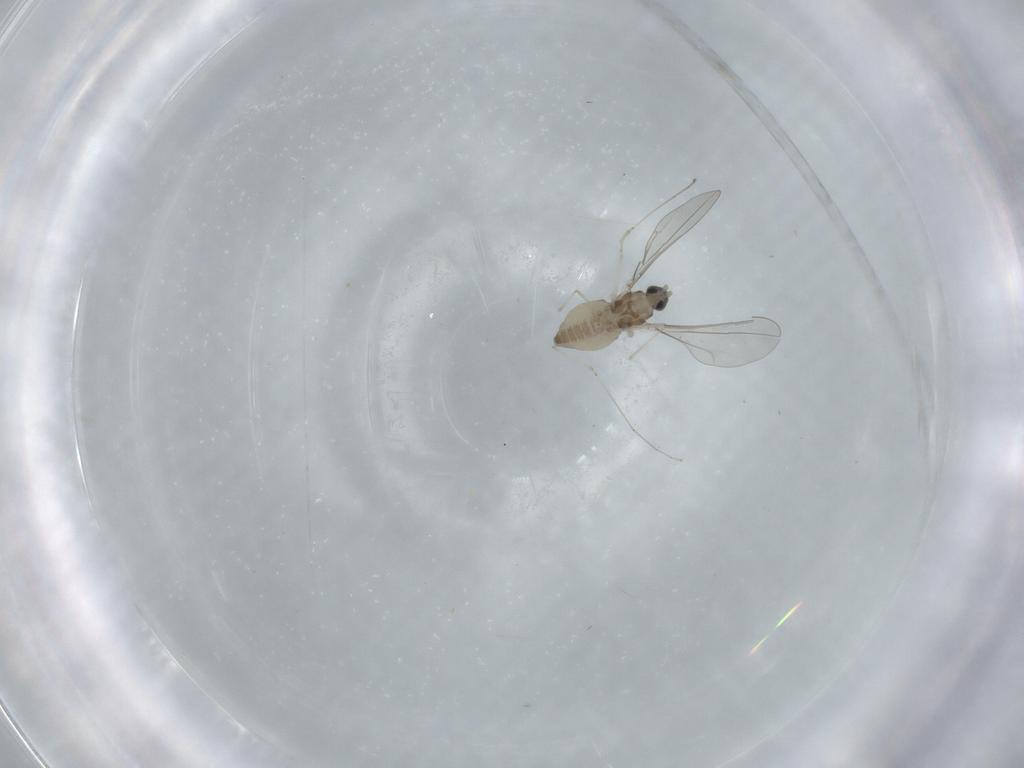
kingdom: Animalia
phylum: Arthropoda
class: Insecta
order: Diptera
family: Cecidomyiidae
